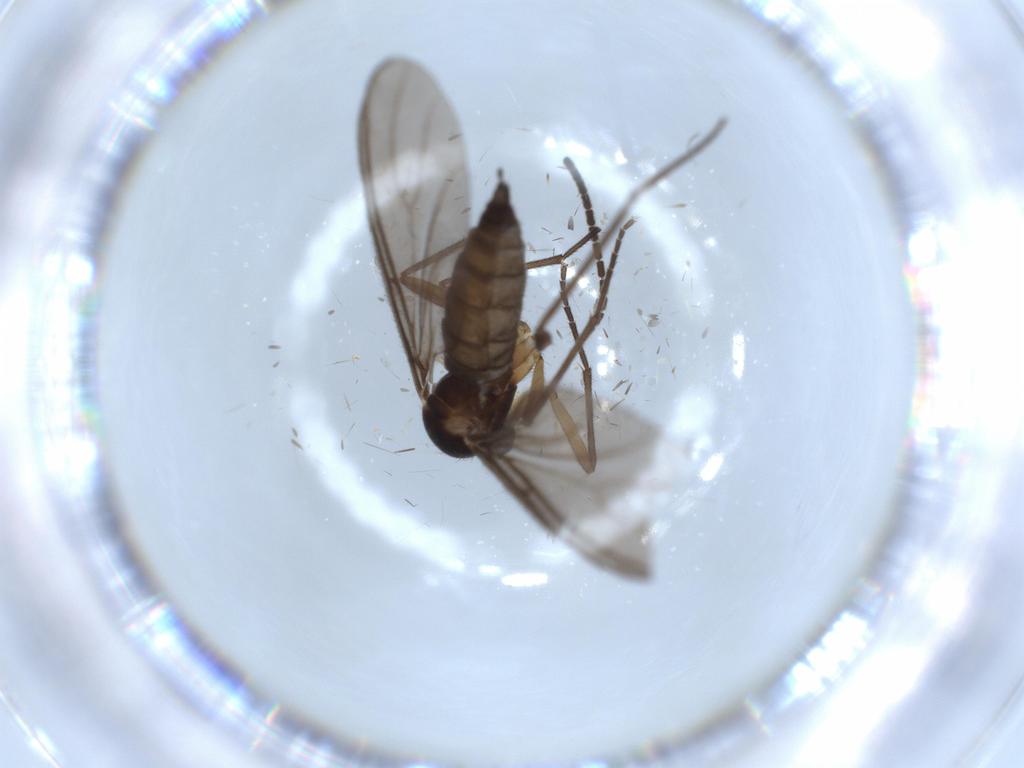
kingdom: Animalia
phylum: Arthropoda
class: Insecta
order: Diptera
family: Sciaridae
